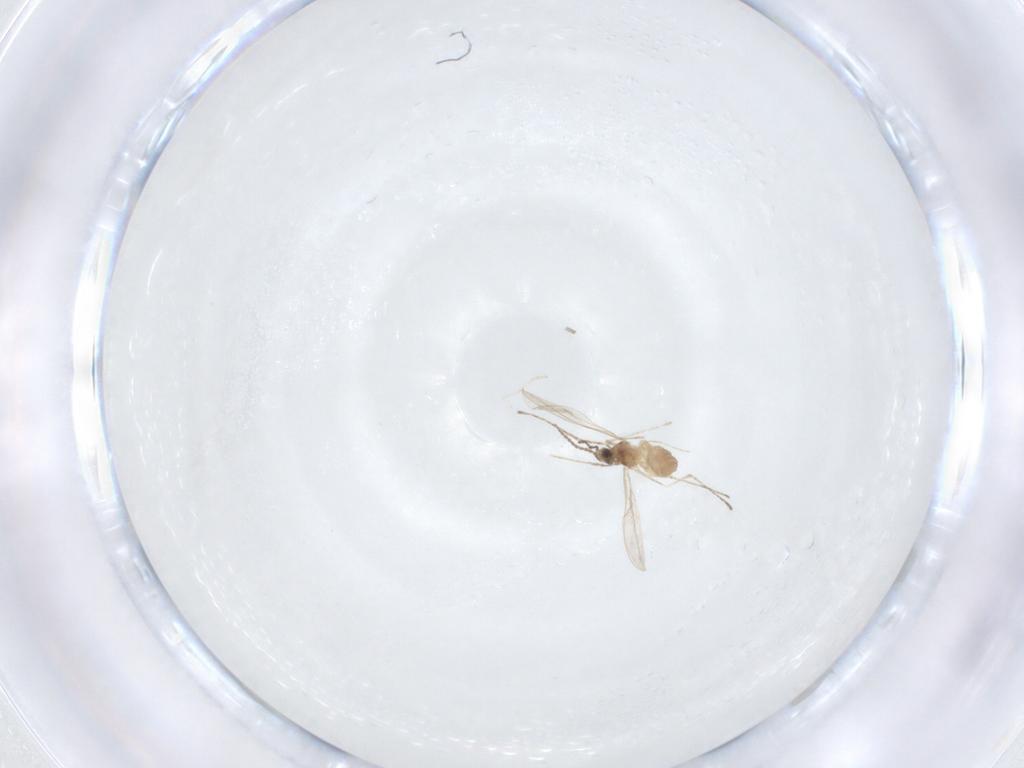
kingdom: Animalia
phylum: Arthropoda
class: Insecta
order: Diptera
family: Cecidomyiidae
